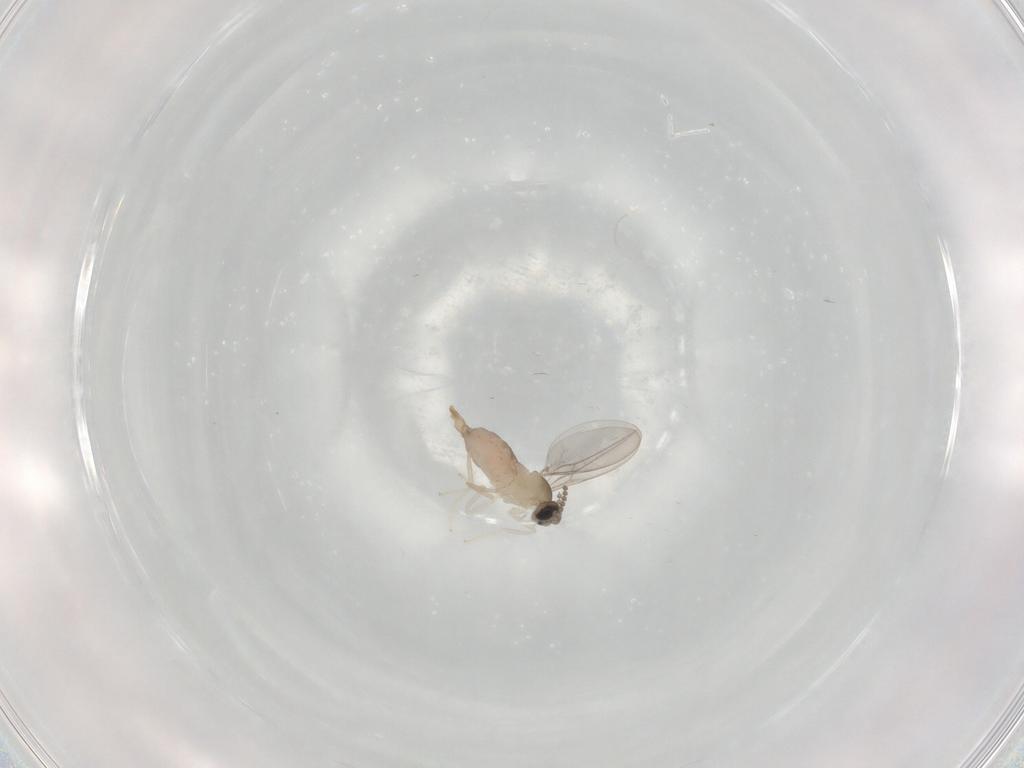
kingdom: Animalia
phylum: Arthropoda
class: Insecta
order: Diptera
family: Cecidomyiidae
